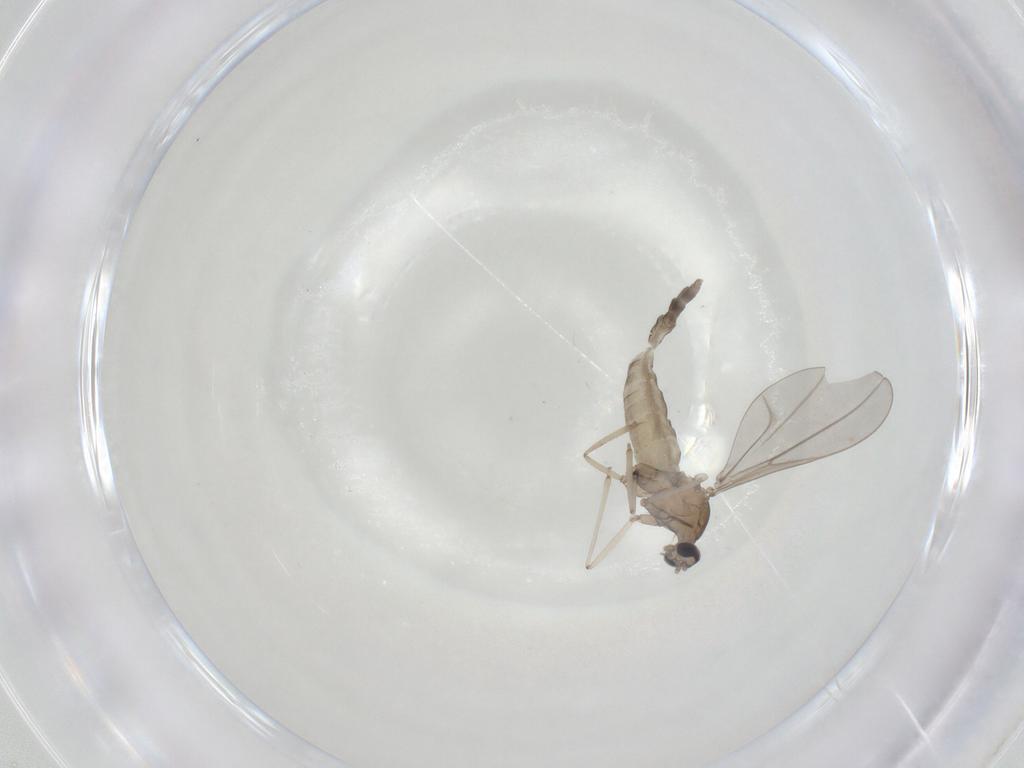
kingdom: Animalia
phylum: Arthropoda
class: Insecta
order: Diptera
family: Cecidomyiidae
